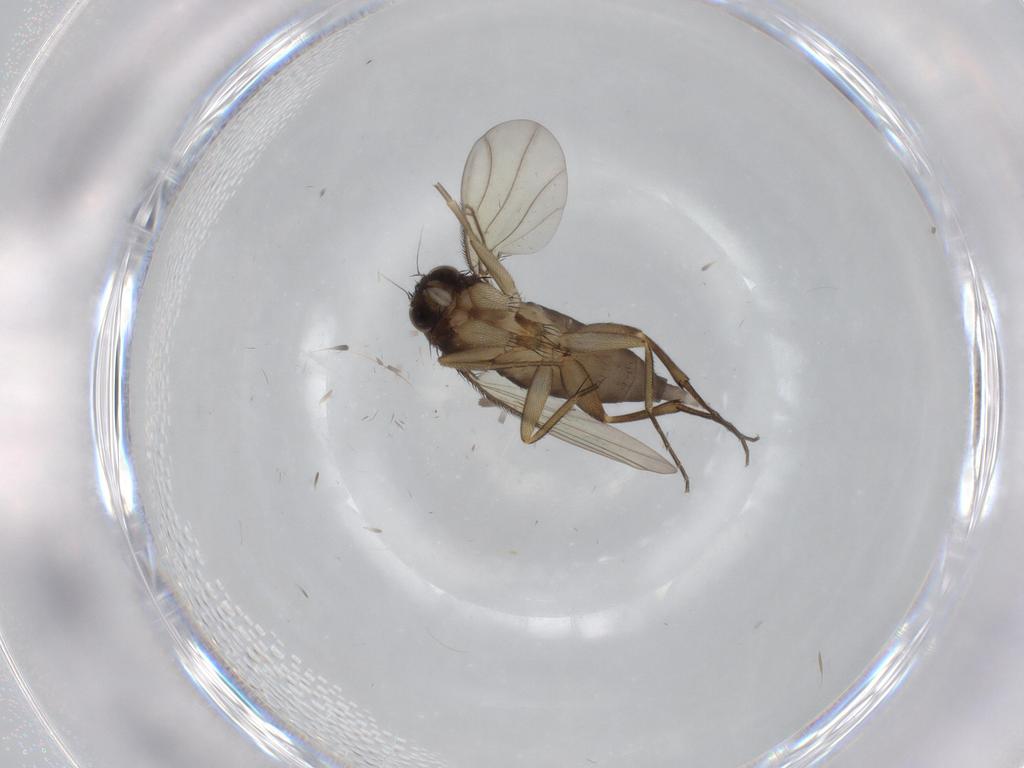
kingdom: Animalia
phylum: Arthropoda
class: Insecta
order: Diptera
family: Phoridae
